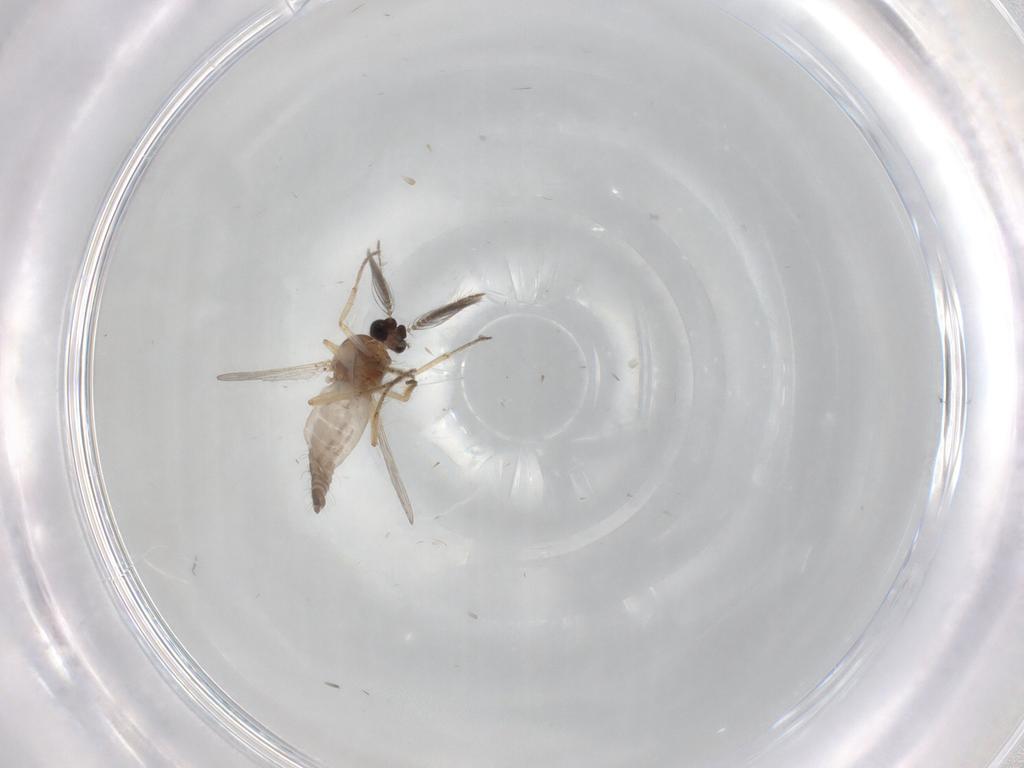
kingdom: Animalia
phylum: Arthropoda
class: Insecta
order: Diptera
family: Ceratopogonidae
